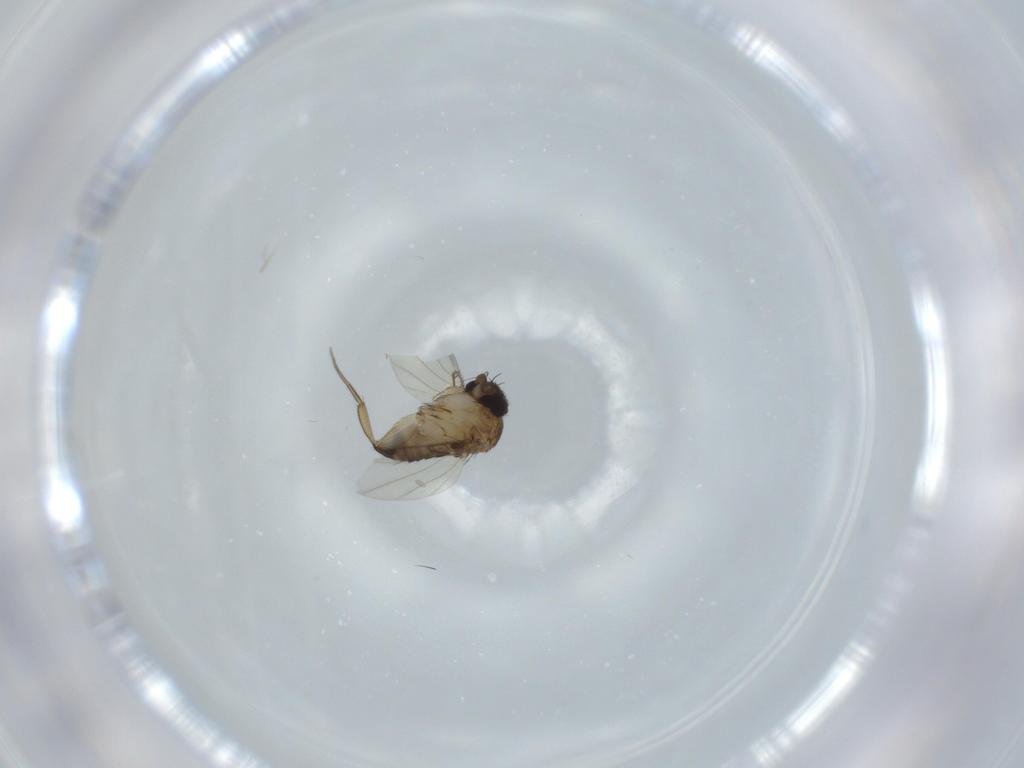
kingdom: Animalia
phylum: Arthropoda
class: Insecta
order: Diptera
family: Phoridae
